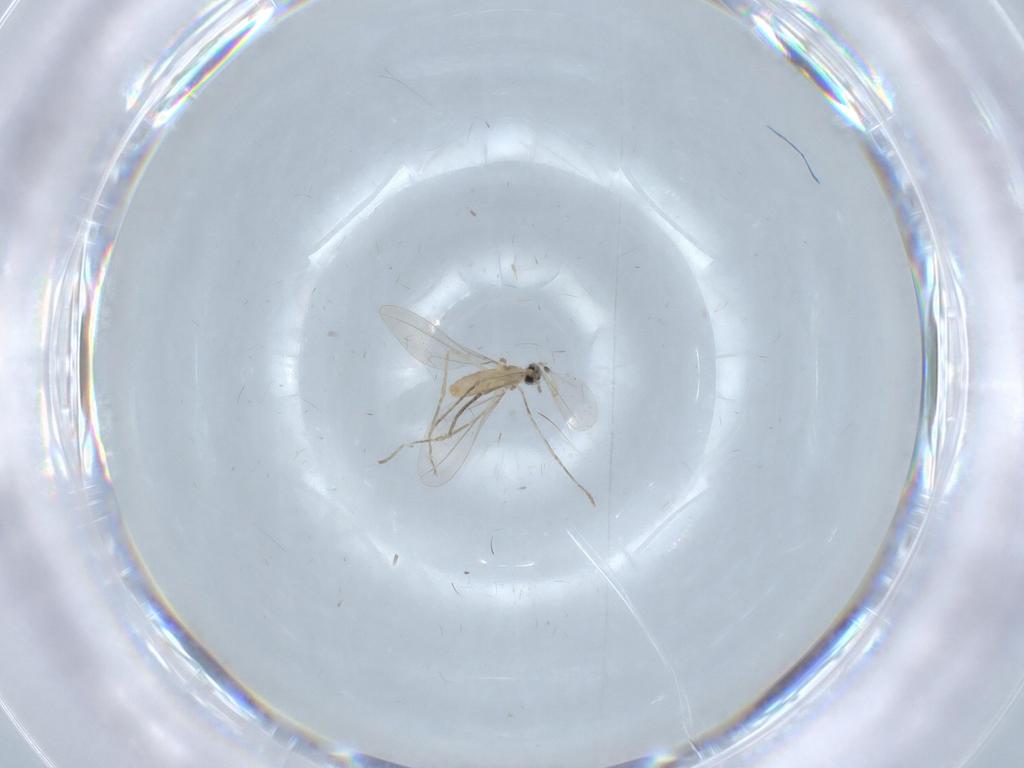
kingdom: Animalia
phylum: Arthropoda
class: Insecta
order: Diptera
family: Cecidomyiidae
